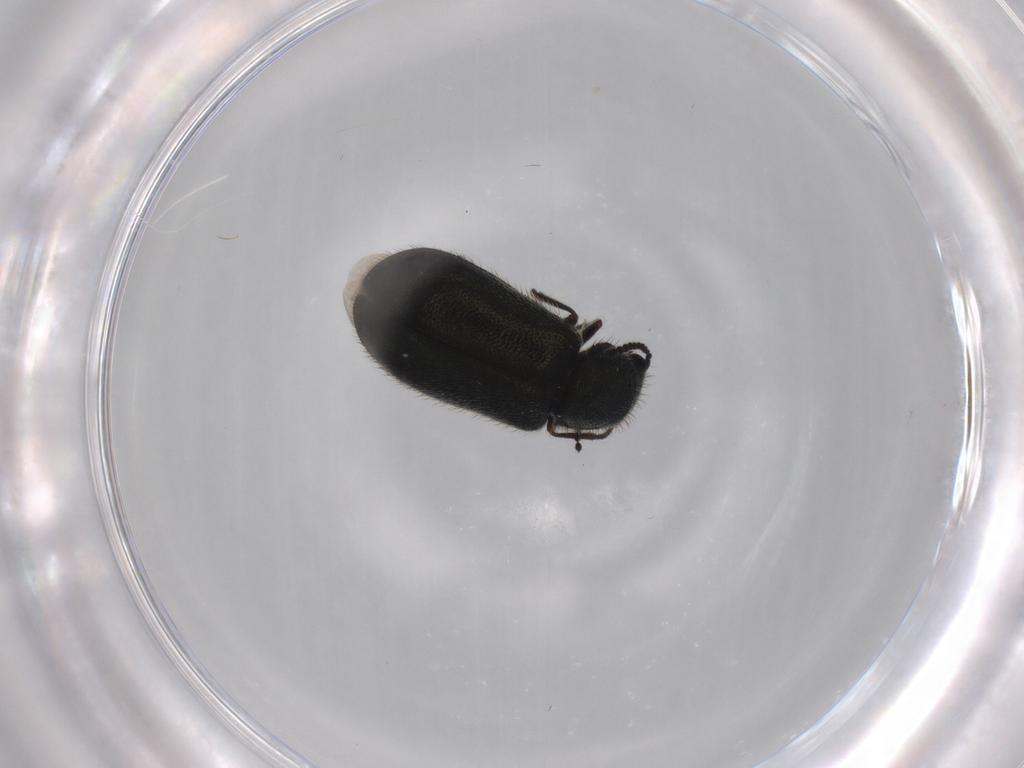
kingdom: Animalia
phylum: Arthropoda
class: Insecta
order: Coleoptera
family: Melyridae
